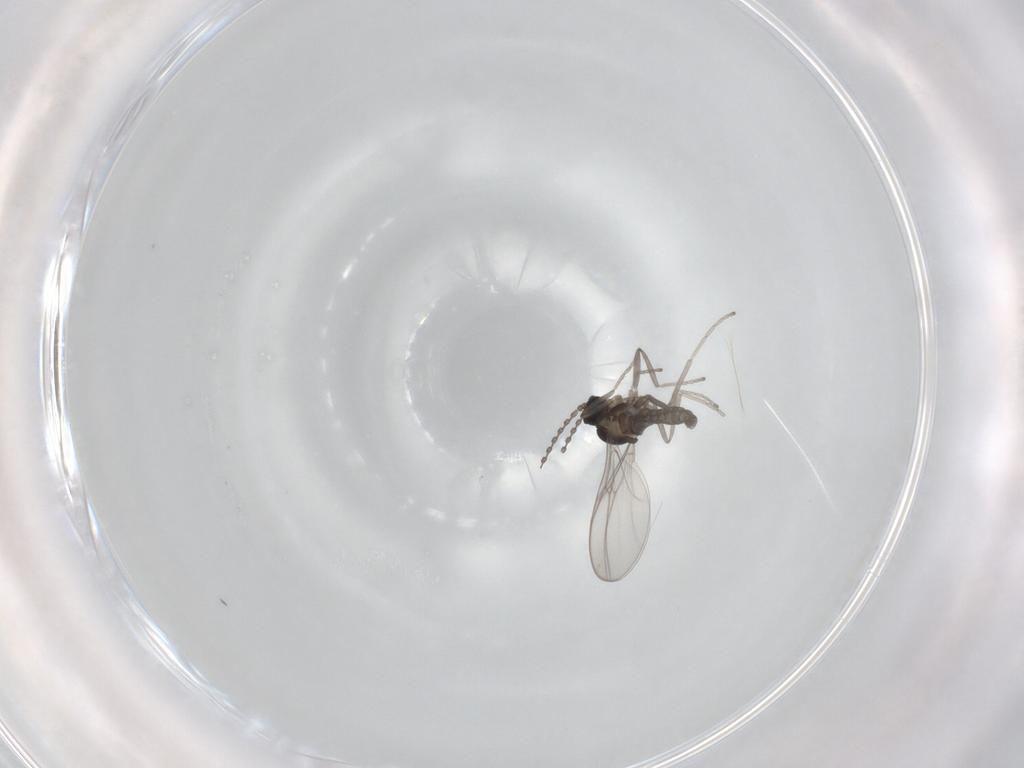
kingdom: Animalia
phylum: Arthropoda
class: Insecta
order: Diptera
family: Cecidomyiidae
